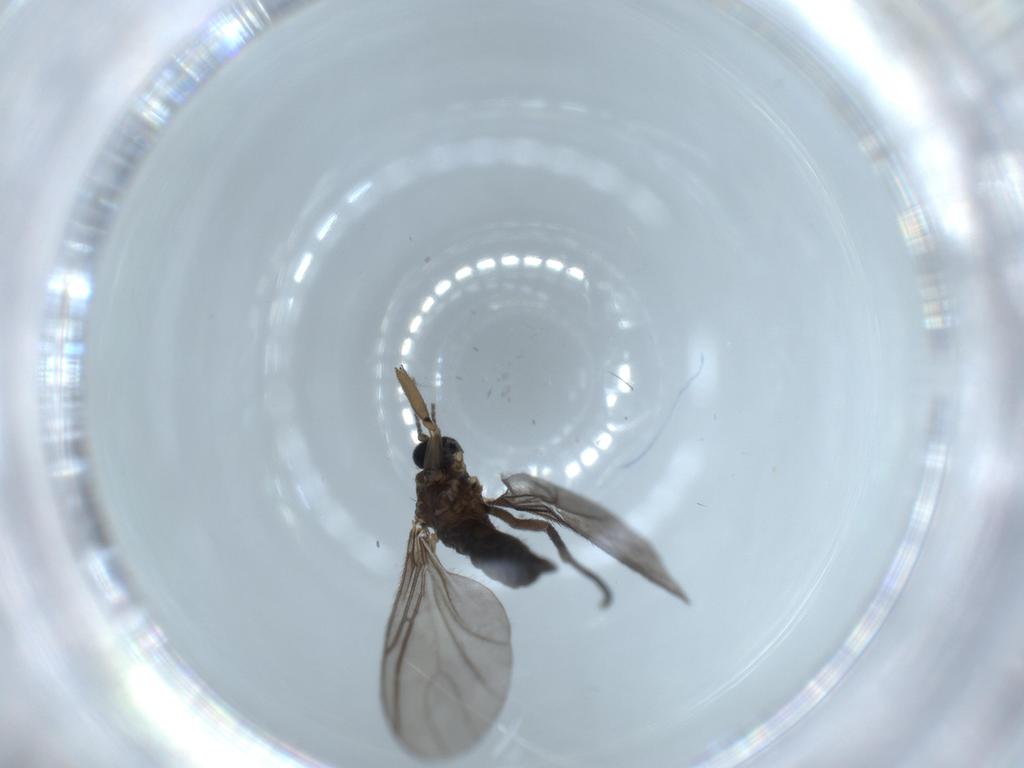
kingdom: Animalia
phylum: Arthropoda
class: Insecta
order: Diptera
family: Sciaridae
